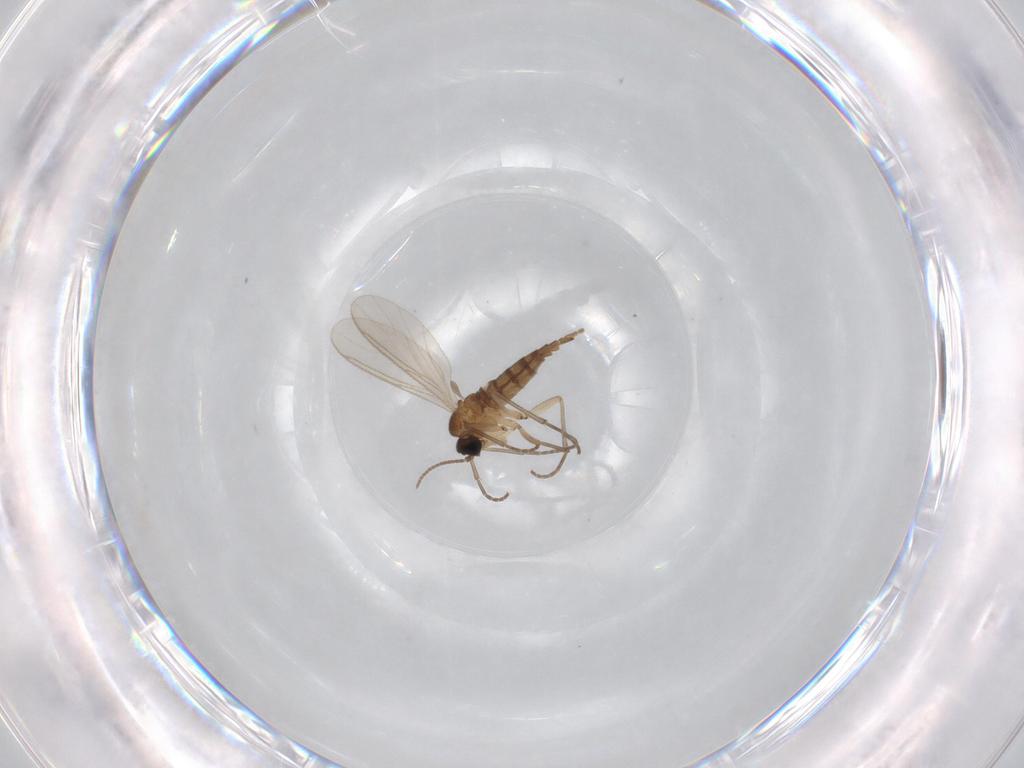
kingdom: Animalia
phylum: Arthropoda
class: Insecta
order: Diptera
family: Sciaridae
